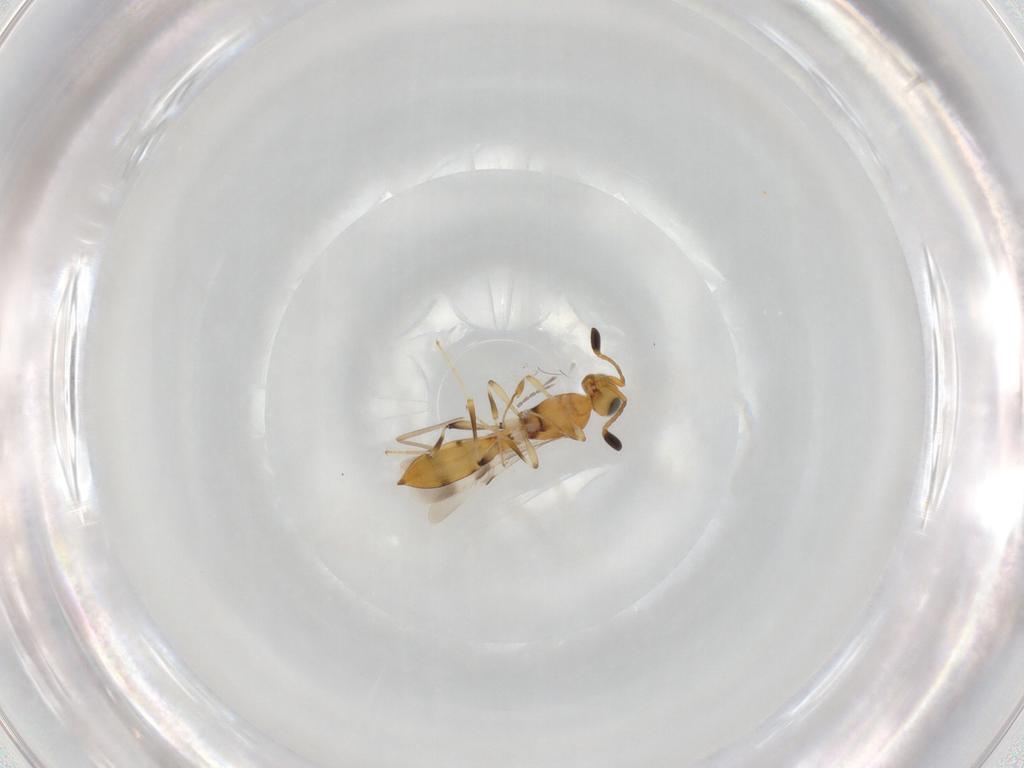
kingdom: Animalia
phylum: Arthropoda
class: Insecta
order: Hymenoptera
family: Scelionidae
